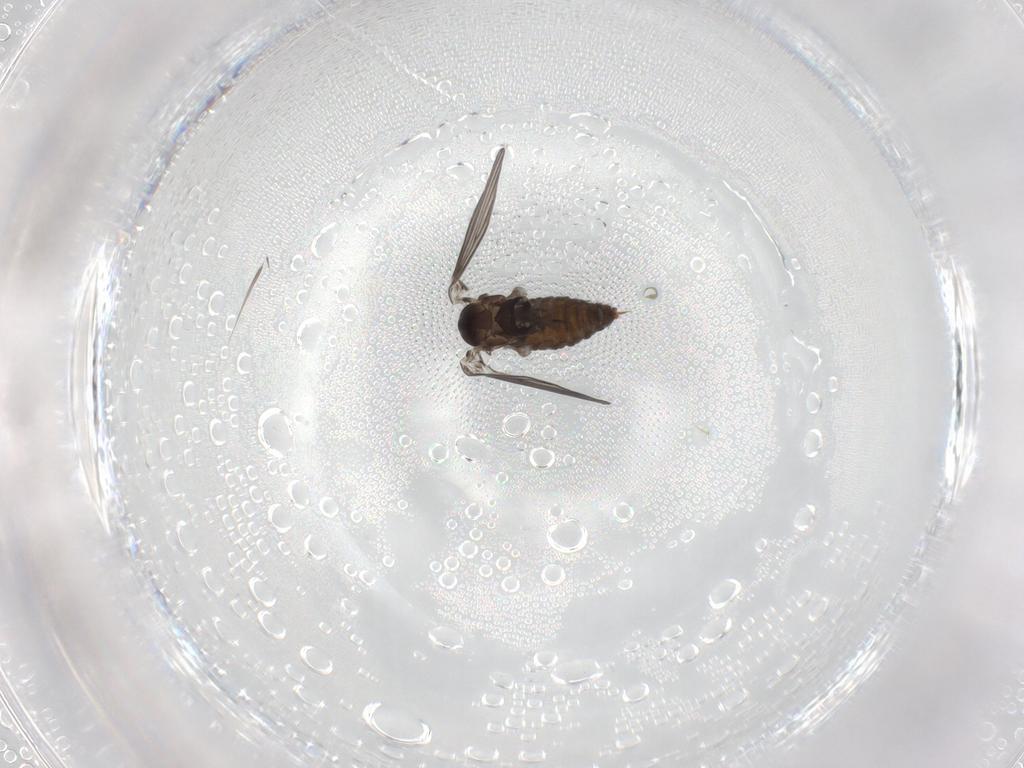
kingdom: Animalia
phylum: Arthropoda
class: Insecta
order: Diptera
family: Psychodidae
